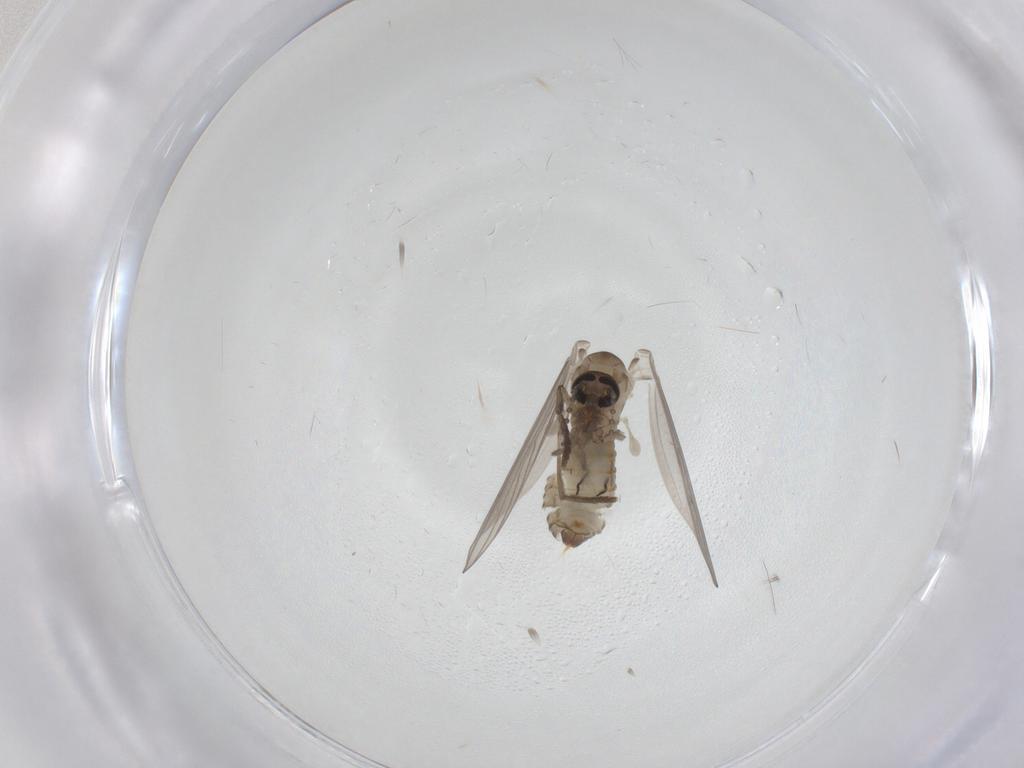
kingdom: Animalia
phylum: Arthropoda
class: Insecta
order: Diptera
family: Psychodidae
